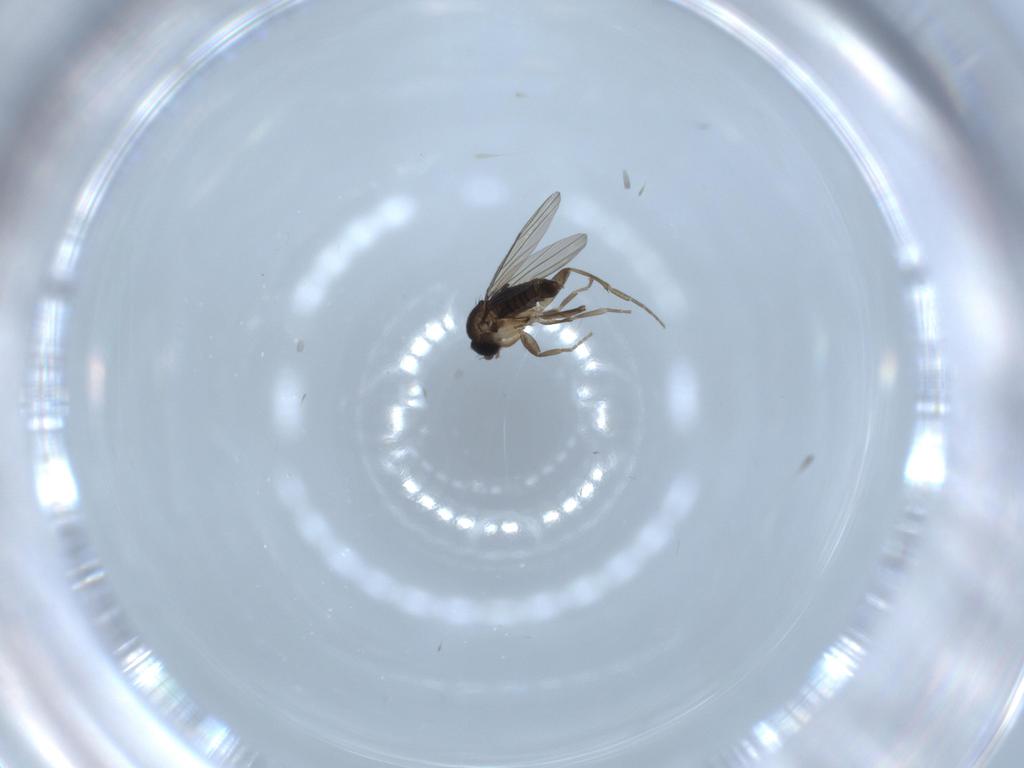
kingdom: Animalia
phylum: Arthropoda
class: Insecta
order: Diptera
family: Phoridae
